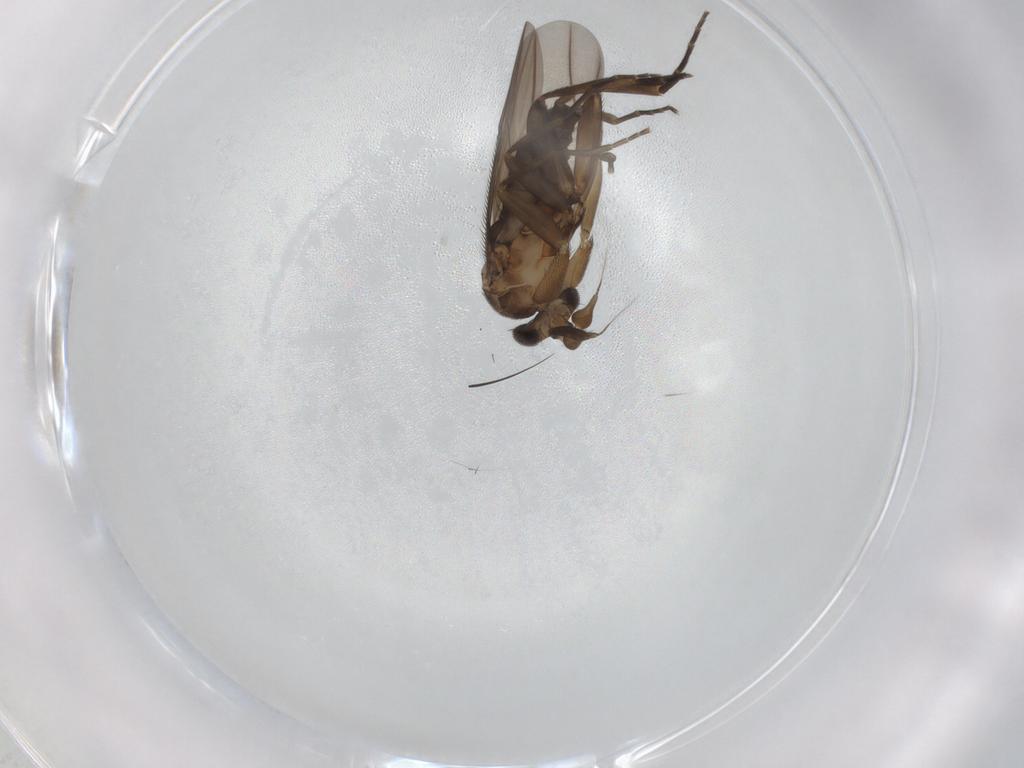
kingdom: Animalia
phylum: Arthropoda
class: Insecta
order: Diptera
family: Phoridae
